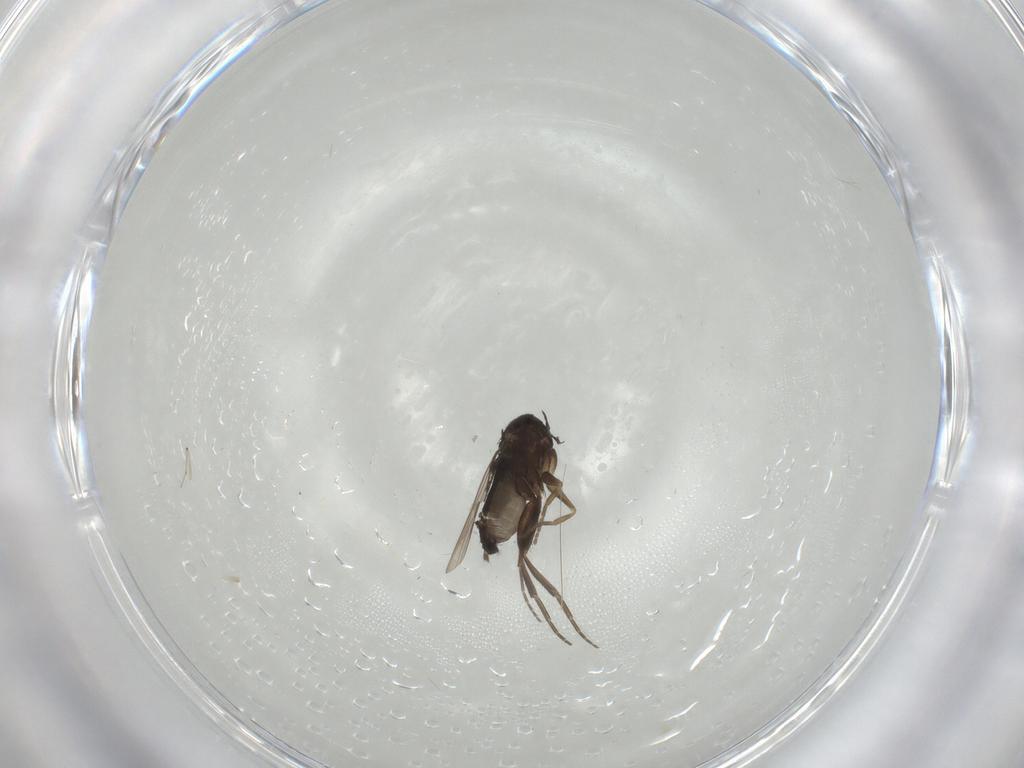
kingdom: Animalia
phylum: Arthropoda
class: Insecta
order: Diptera
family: Phoridae
